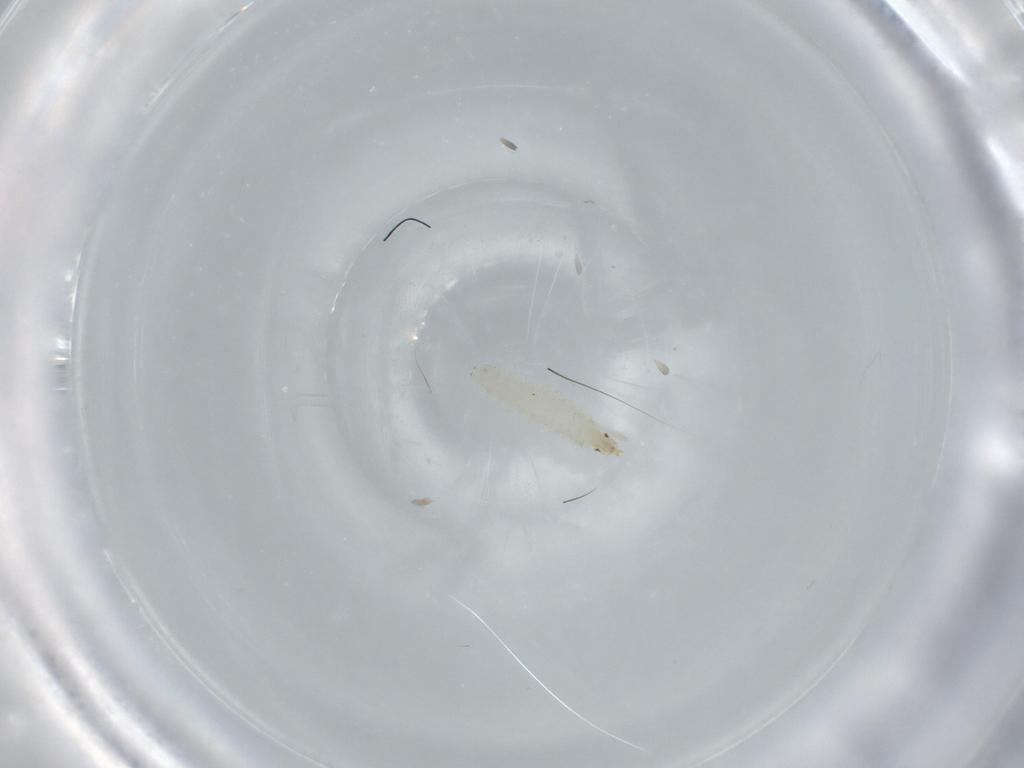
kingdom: Animalia
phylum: Arthropoda
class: Insecta
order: Diptera
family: Stratiomyidae
